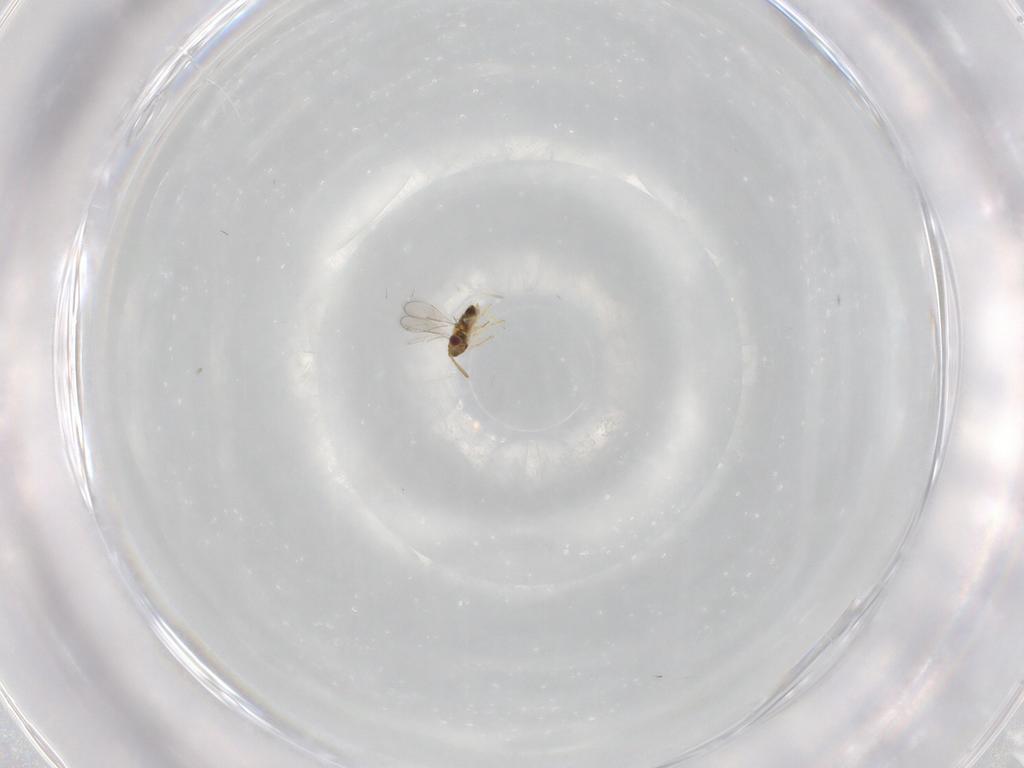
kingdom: Animalia
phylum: Arthropoda
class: Insecta
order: Hymenoptera
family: Aphelinidae
